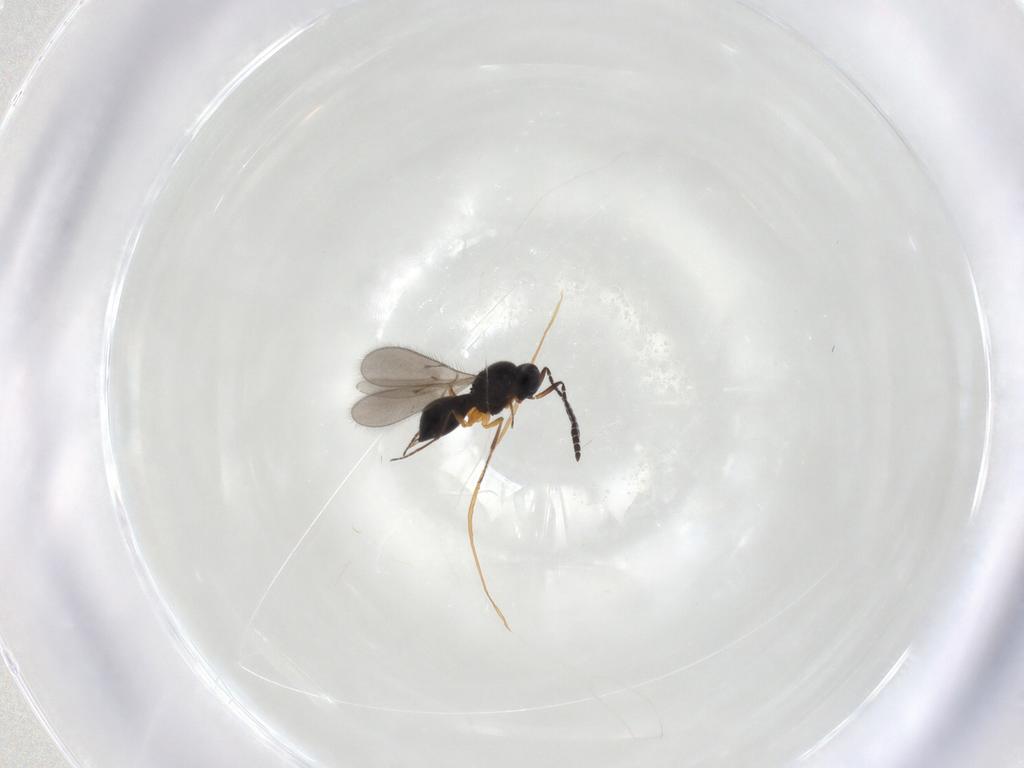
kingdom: Animalia
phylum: Arthropoda
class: Insecta
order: Hymenoptera
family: Scelionidae
